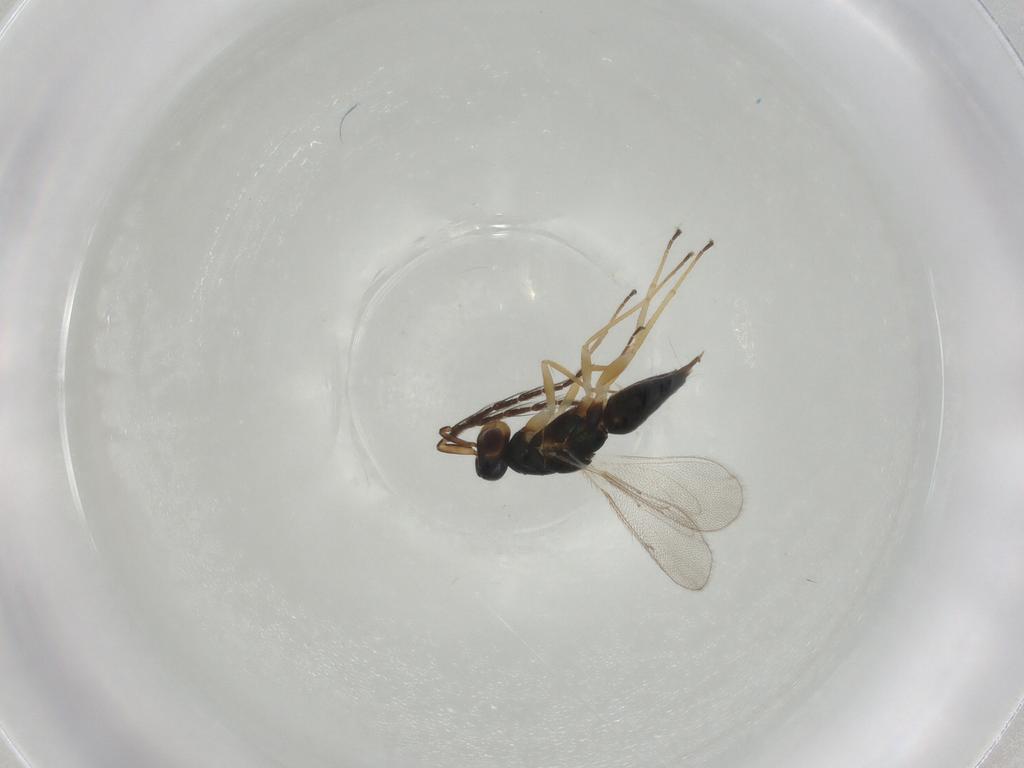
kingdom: Animalia
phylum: Arthropoda
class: Insecta
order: Hymenoptera
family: Eulophidae
